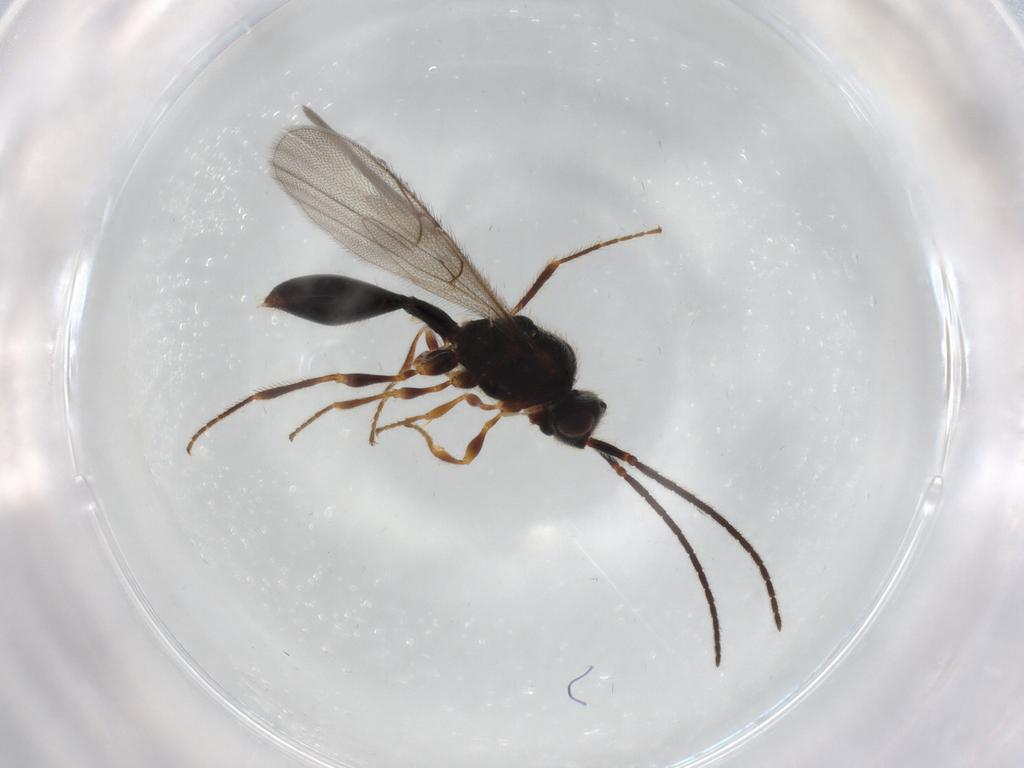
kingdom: Animalia
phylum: Arthropoda
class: Insecta
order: Hymenoptera
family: Diapriidae
